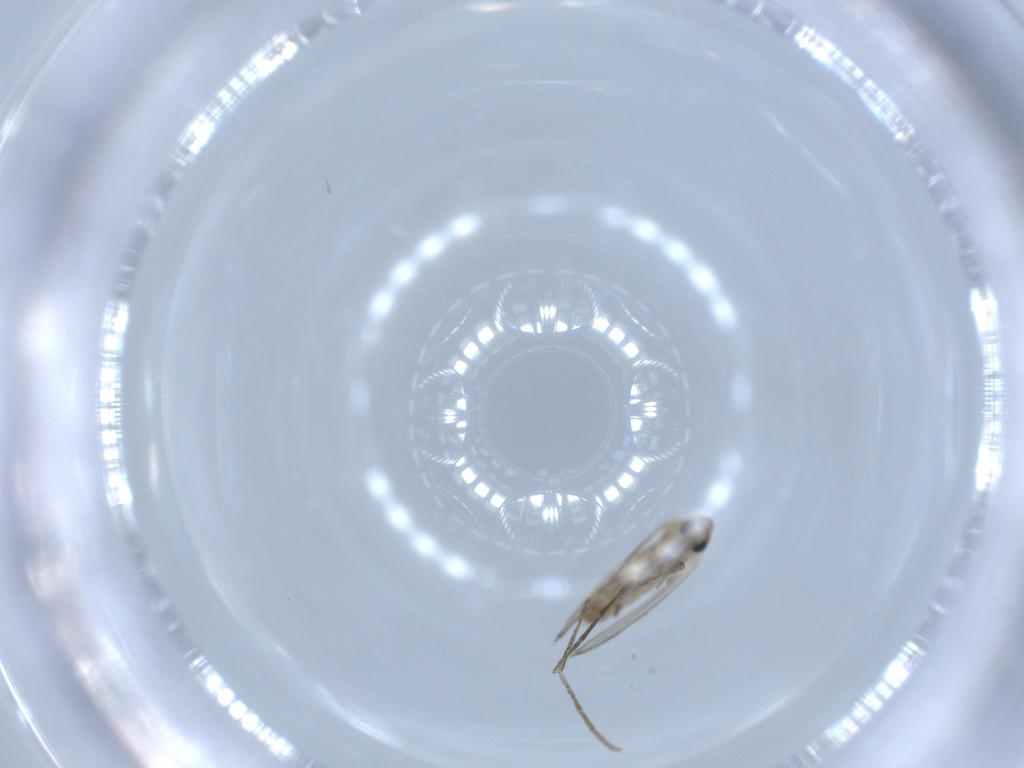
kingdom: Animalia
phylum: Arthropoda
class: Insecta
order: Diptera
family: Psychodidae
